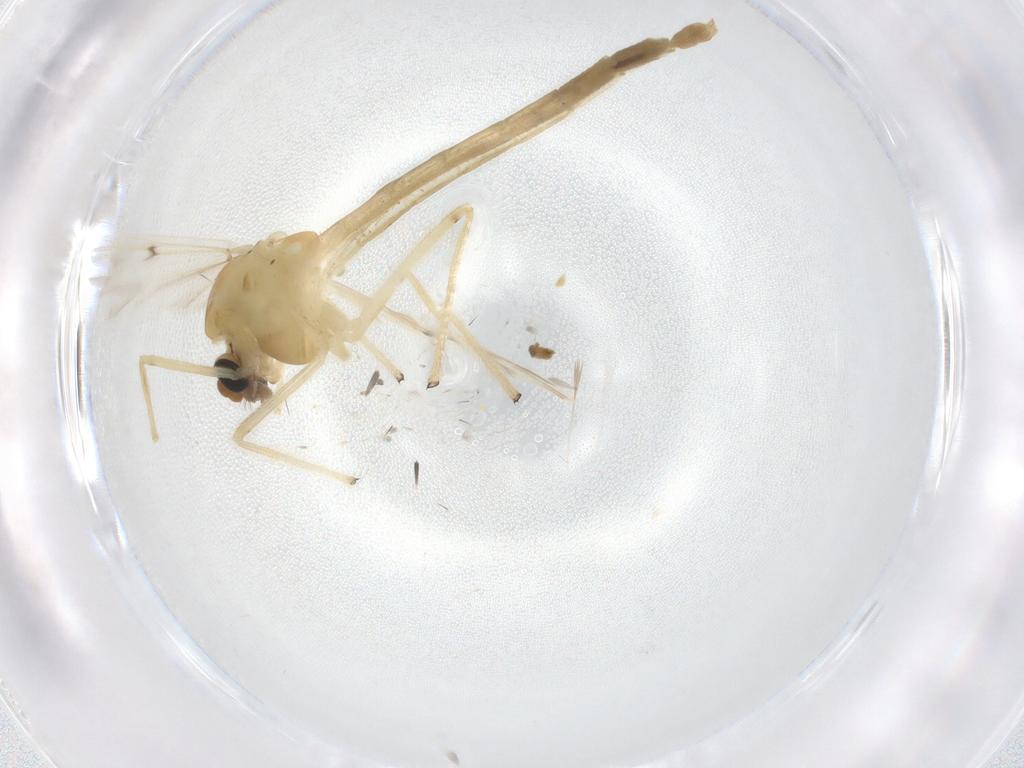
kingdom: Animalia
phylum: Arthropoda
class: Insecta
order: Diptera
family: Chironomidae
